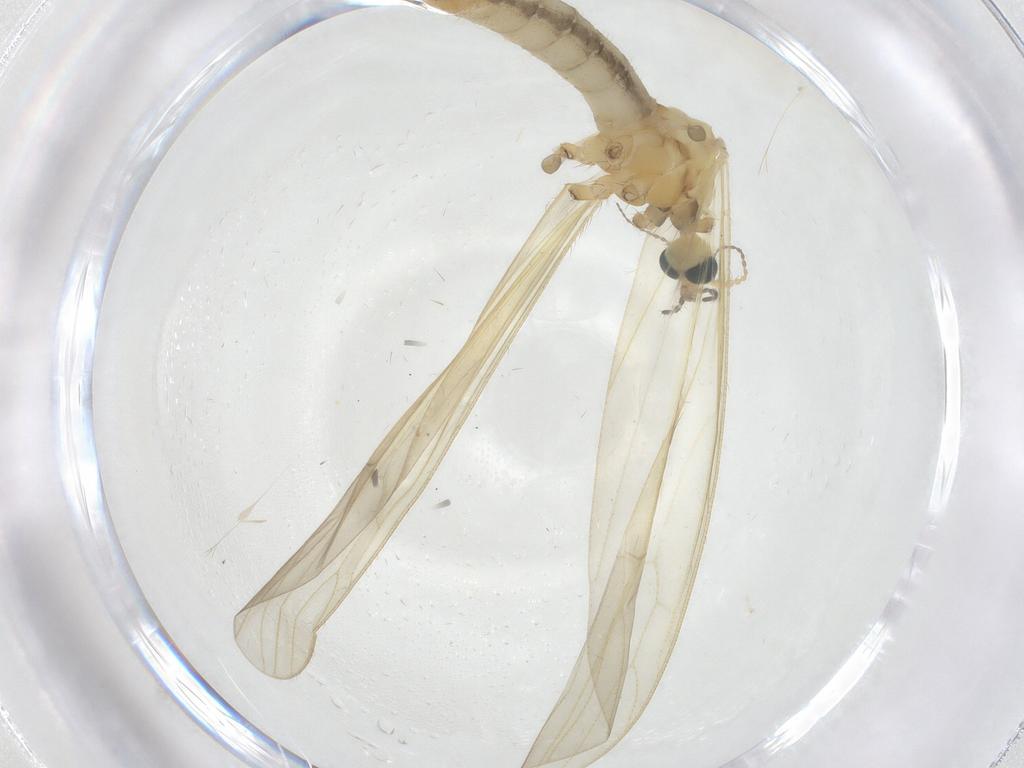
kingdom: Animalia
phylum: Arthropoda
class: Insecta
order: Diptera
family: Limoniidae
